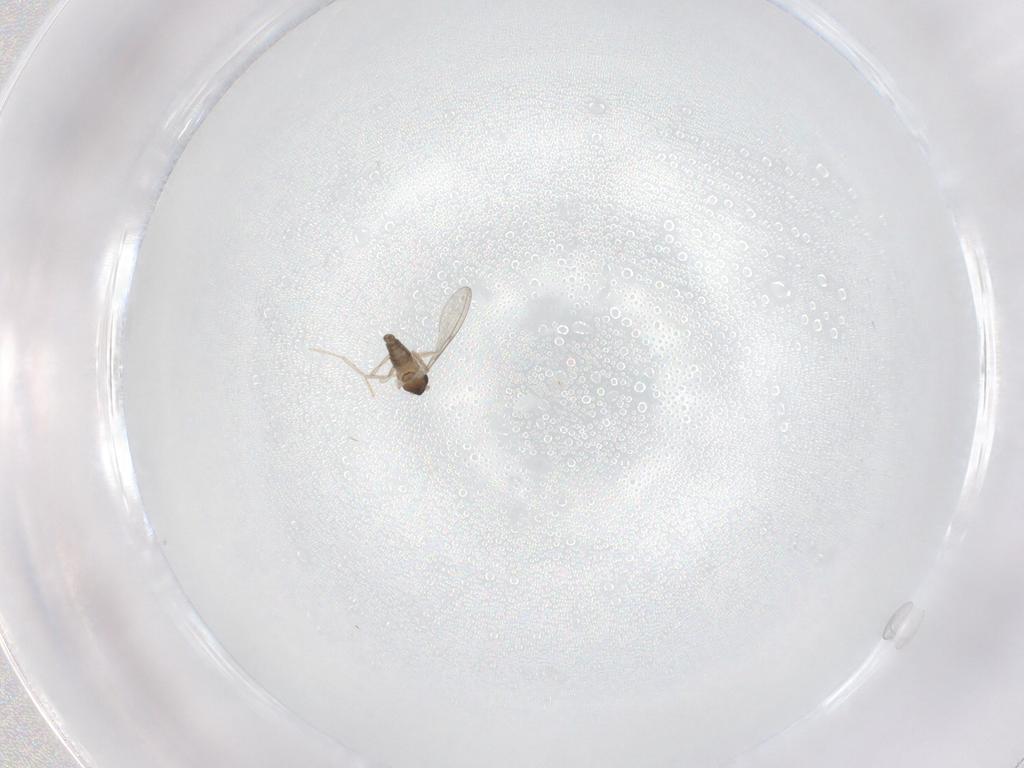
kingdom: Animalia
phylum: Arthropoda
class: Insecta
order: Diptera
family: Cecidomyiidae
